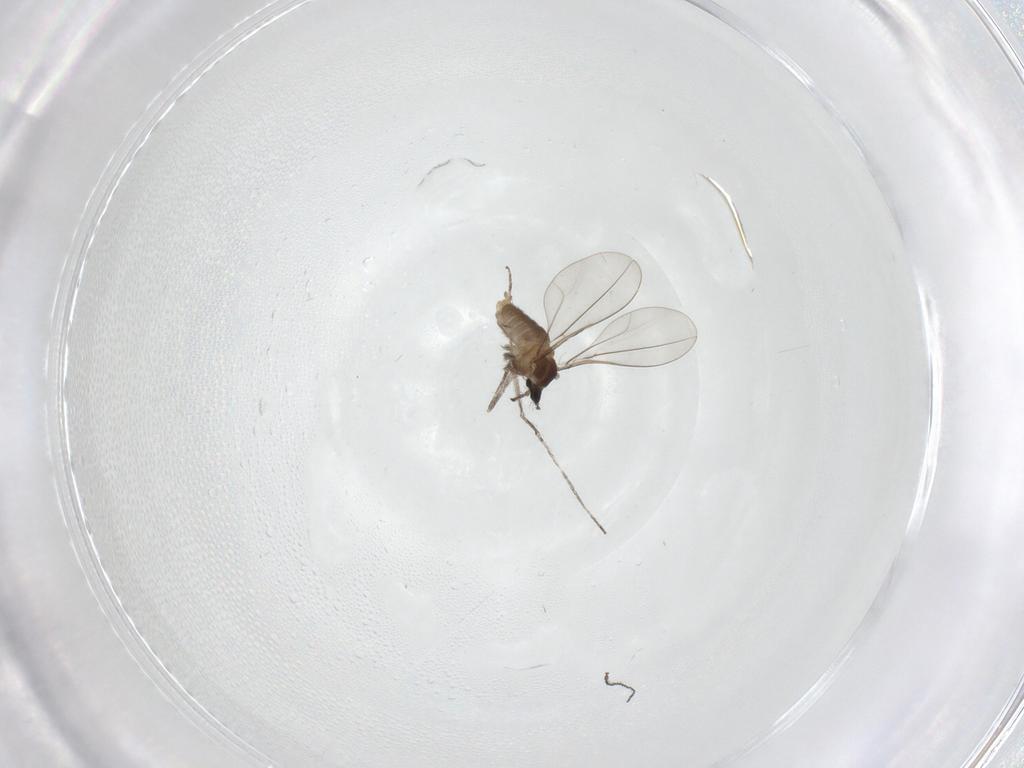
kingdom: Animalia
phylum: Arthropoda
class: Insecta
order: Diptera
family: Cecidomyiidae
